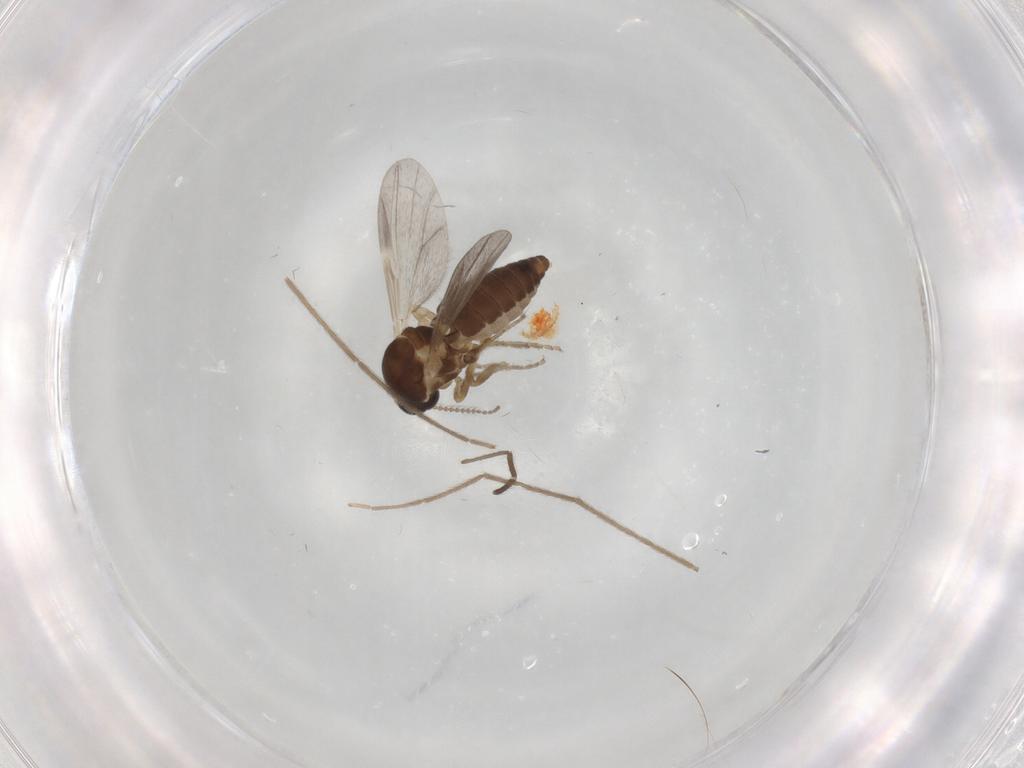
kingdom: Animalia
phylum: Arthropoda
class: Insecta
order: Diptera
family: Ceratopogonidae
